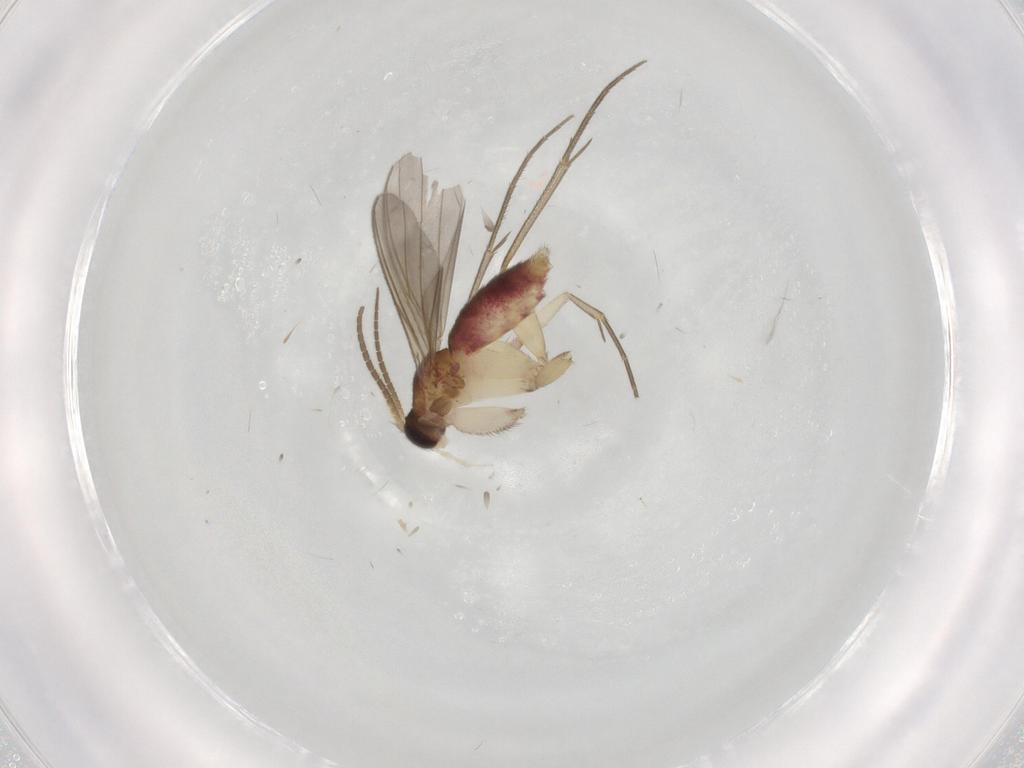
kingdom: Animalia
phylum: Arthropoda
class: Insecta
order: Diptera
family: Mycetophilidae
